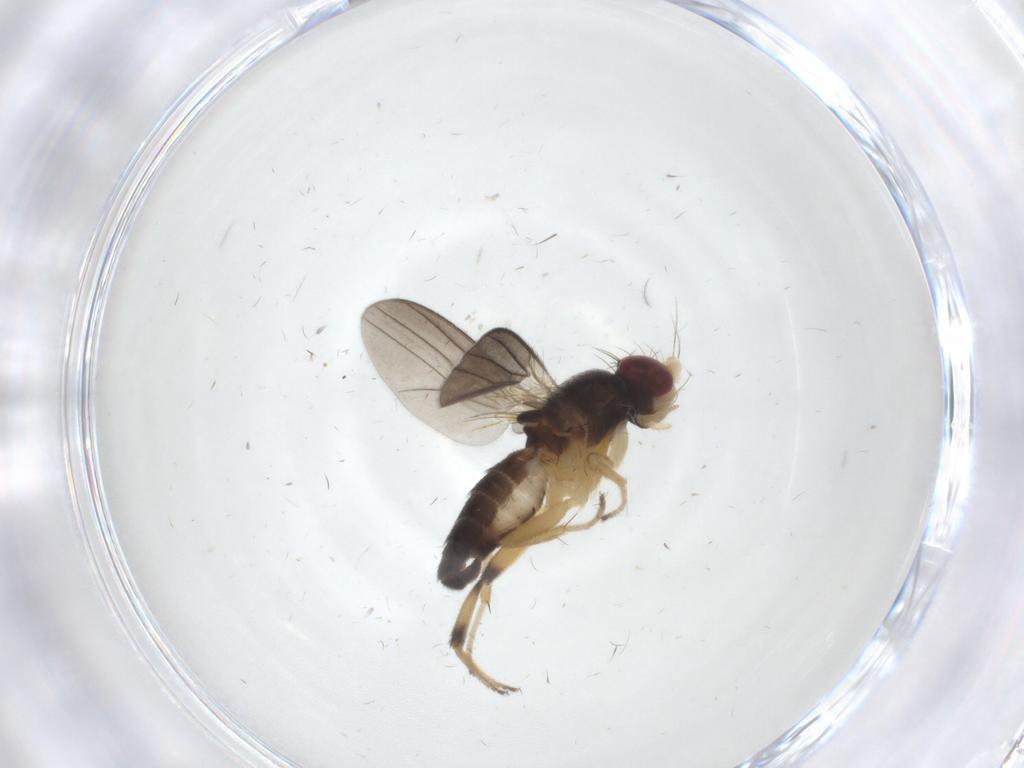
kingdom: Animalia
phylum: Arthropoda
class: Insecta
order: Diptera
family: Clusiidae
